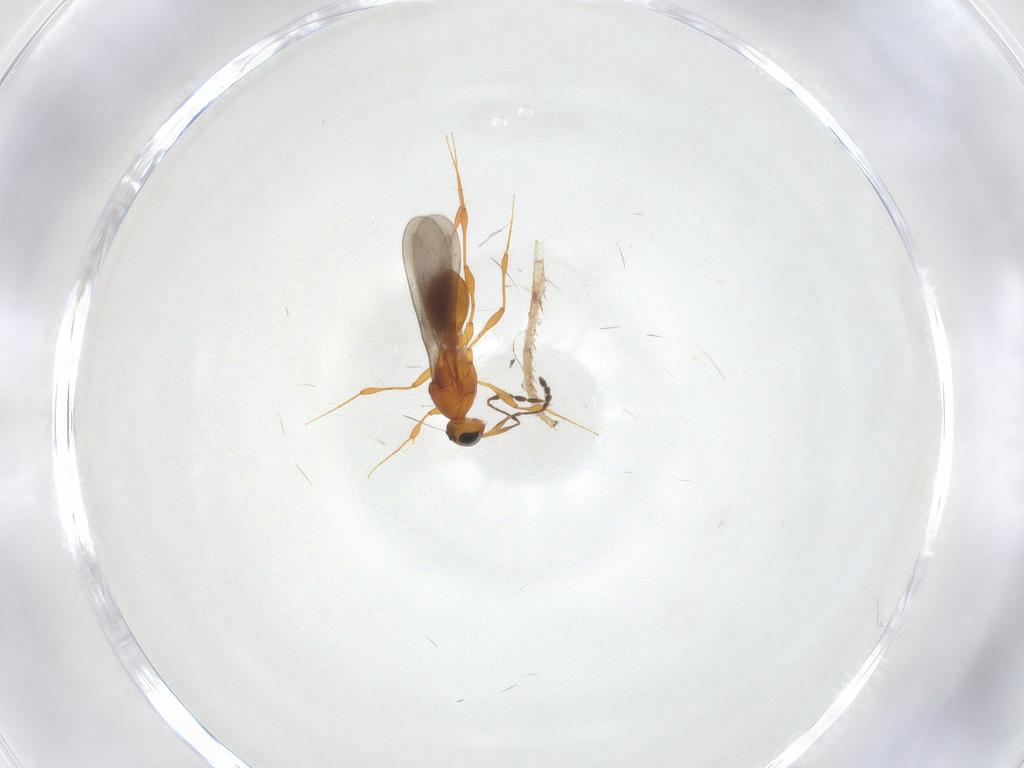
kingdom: Animalia
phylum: Arthropoda
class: Insecta
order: Hymenoptera
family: Platygastridae
